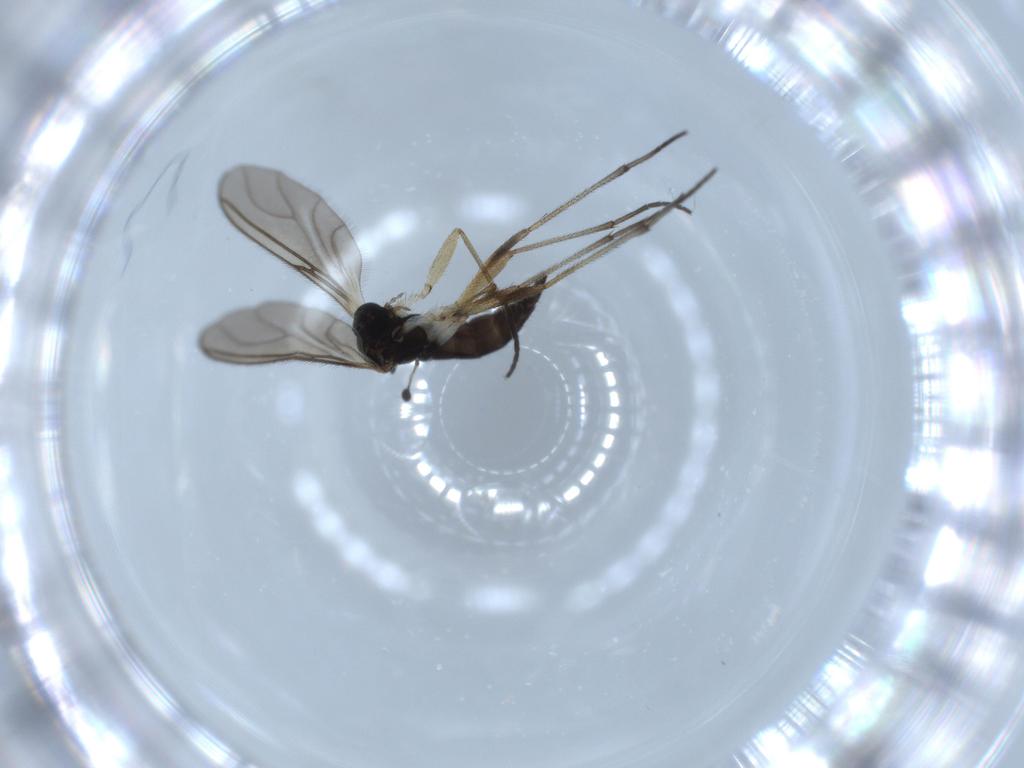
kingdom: Animalia
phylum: Arthropoda
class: Insecta
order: Diptera
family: Sciaridae
